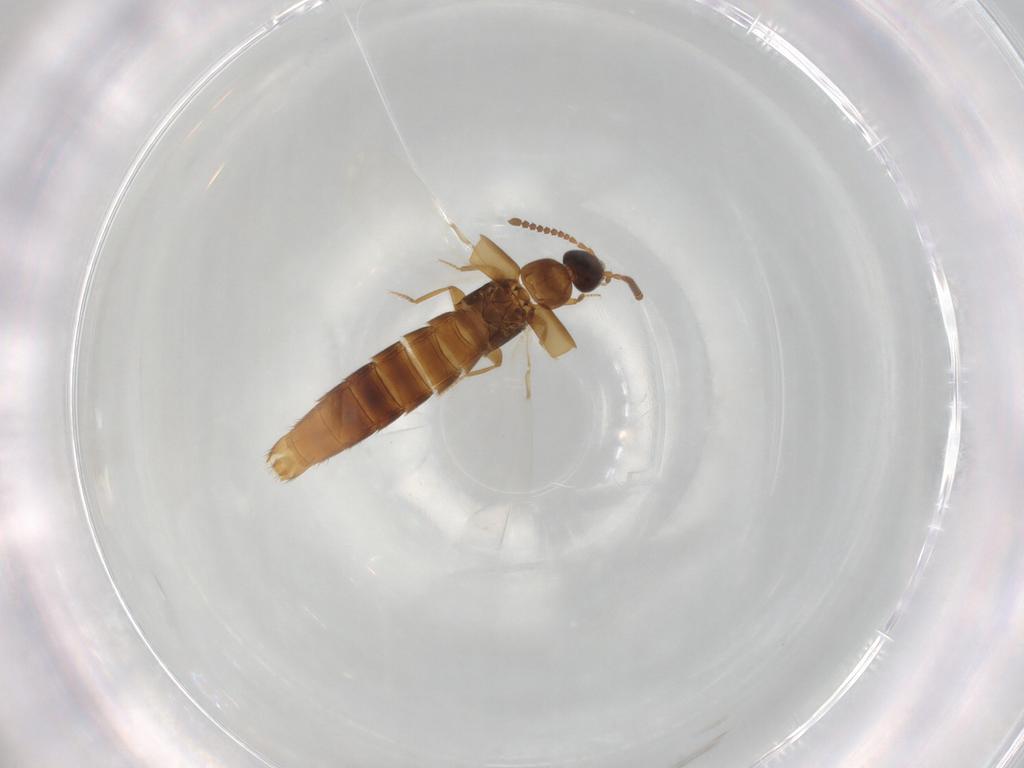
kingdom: Animalia
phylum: Arthropoda
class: Insecta
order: Coleoptera
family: Staphylinidae
